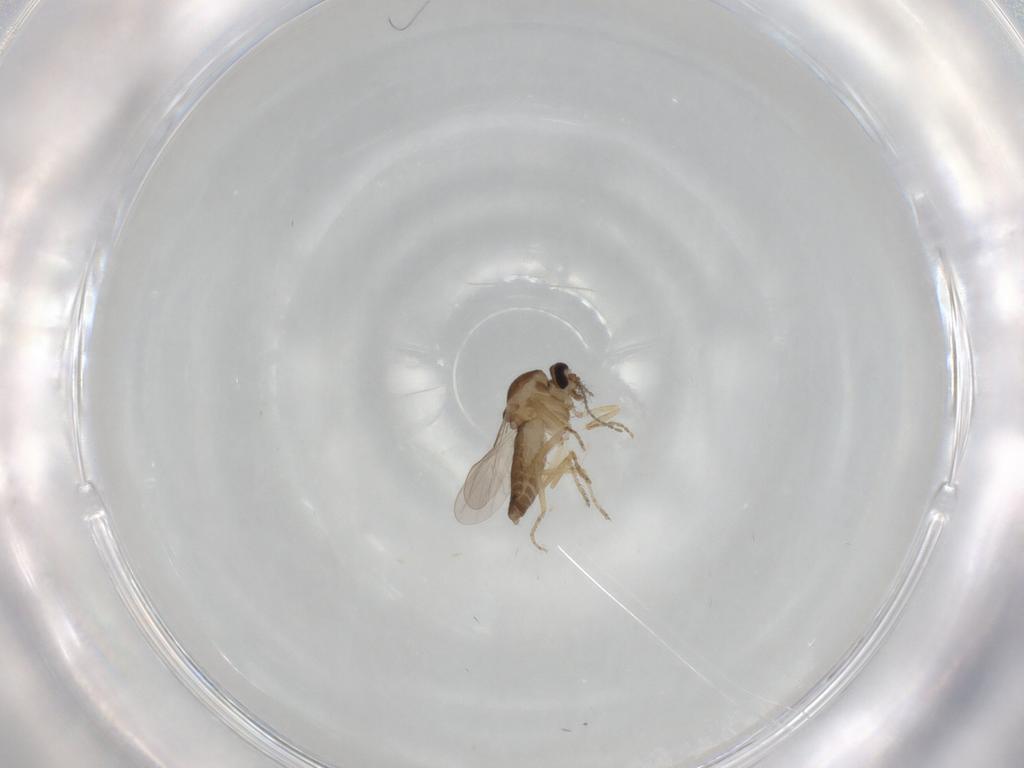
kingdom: Animalia
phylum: Arthropoda
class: Insecta
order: Diptera
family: Ceratopogonidae
